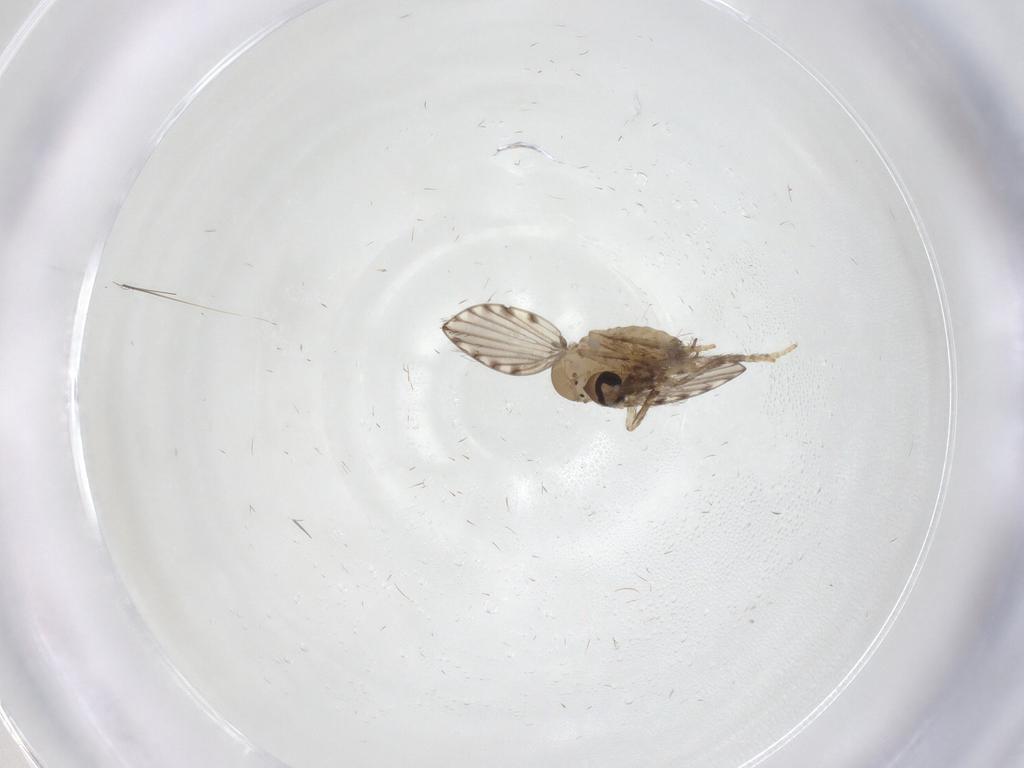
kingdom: Animalia
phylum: Arthropoda
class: Insecta
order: Diptera
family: Psychodidae
